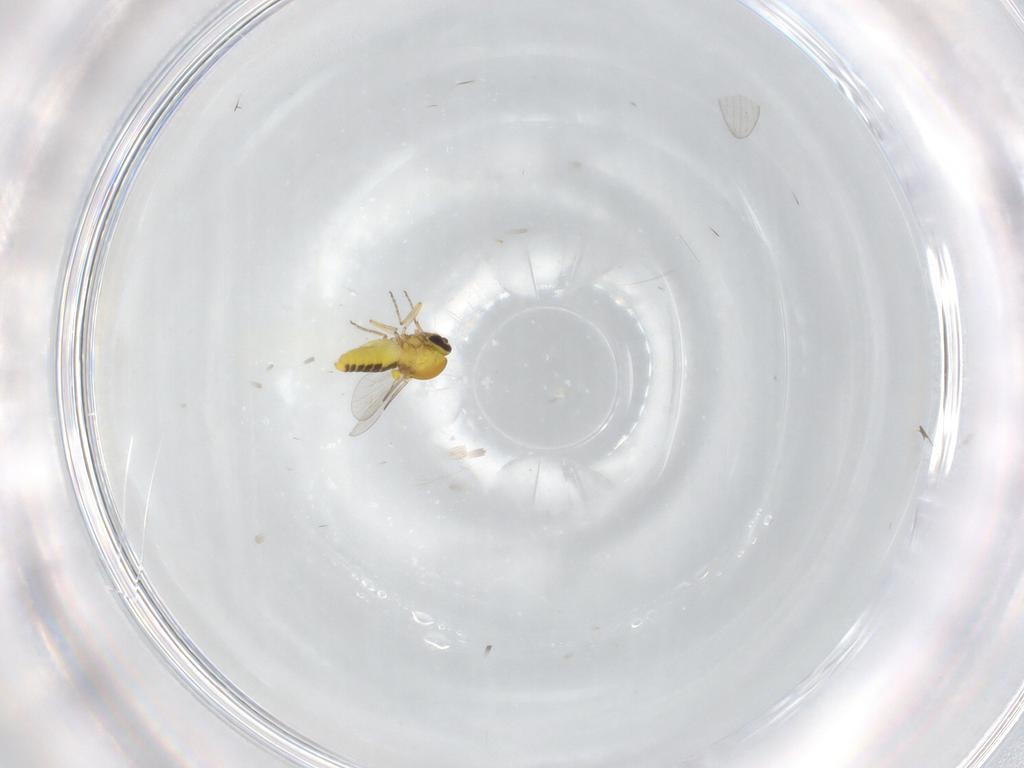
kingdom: Animalia
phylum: Arthropoda
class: Insecta
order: Diptera
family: Ceratopogonidae
